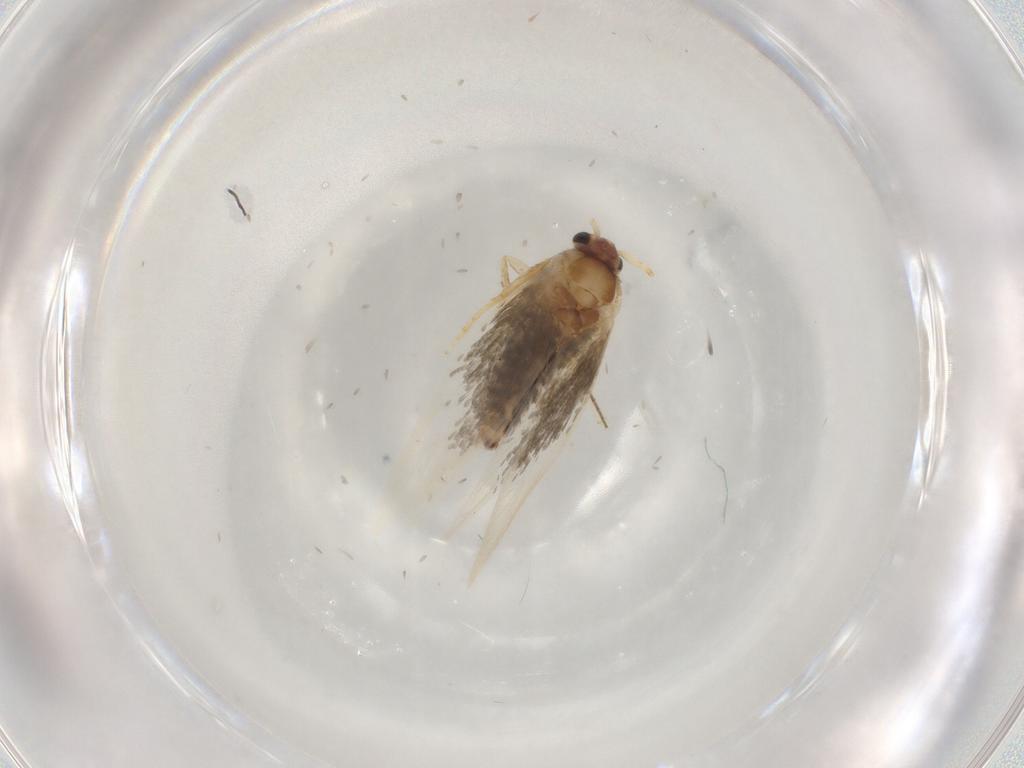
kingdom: Animalia
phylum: Arthropoda
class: Insecta
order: Lepidoptera
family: Nepticulidae
